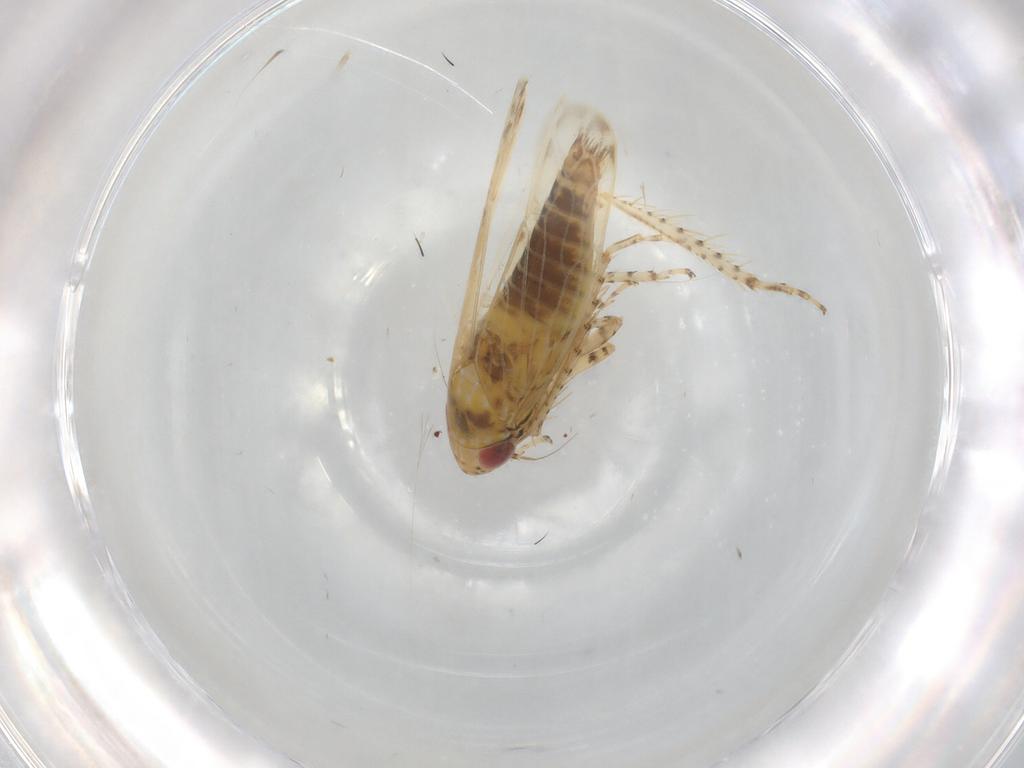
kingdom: Animalia
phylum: Arthropoda
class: Insecta
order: Hemiptera
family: Cicadellidae
